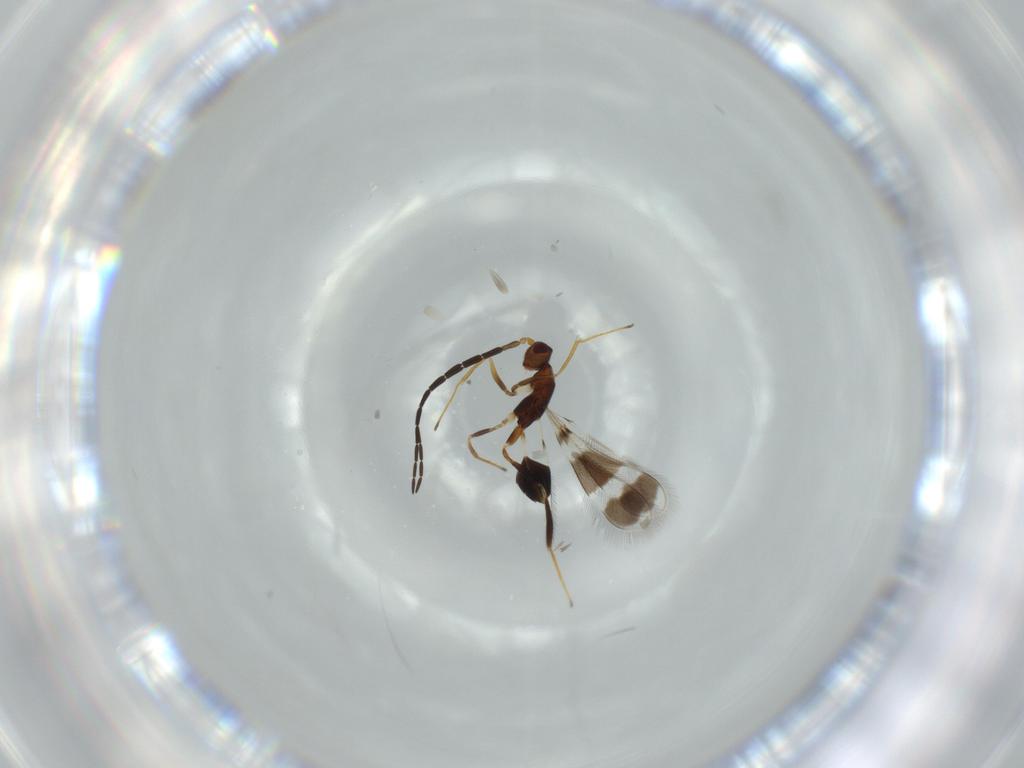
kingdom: Animalia
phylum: Arthropoda
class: Insecta
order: Hymenoptera
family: Mymaridae
